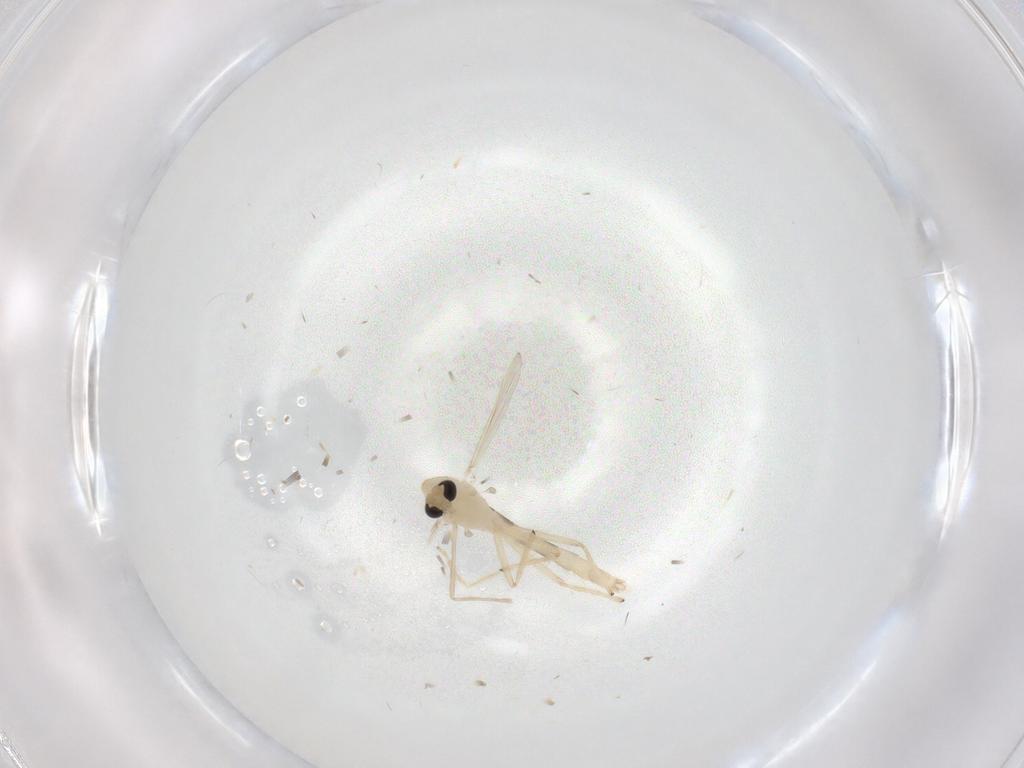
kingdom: Animalia
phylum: Arthropoda
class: Insecta
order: Diptera
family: Chironomidae
